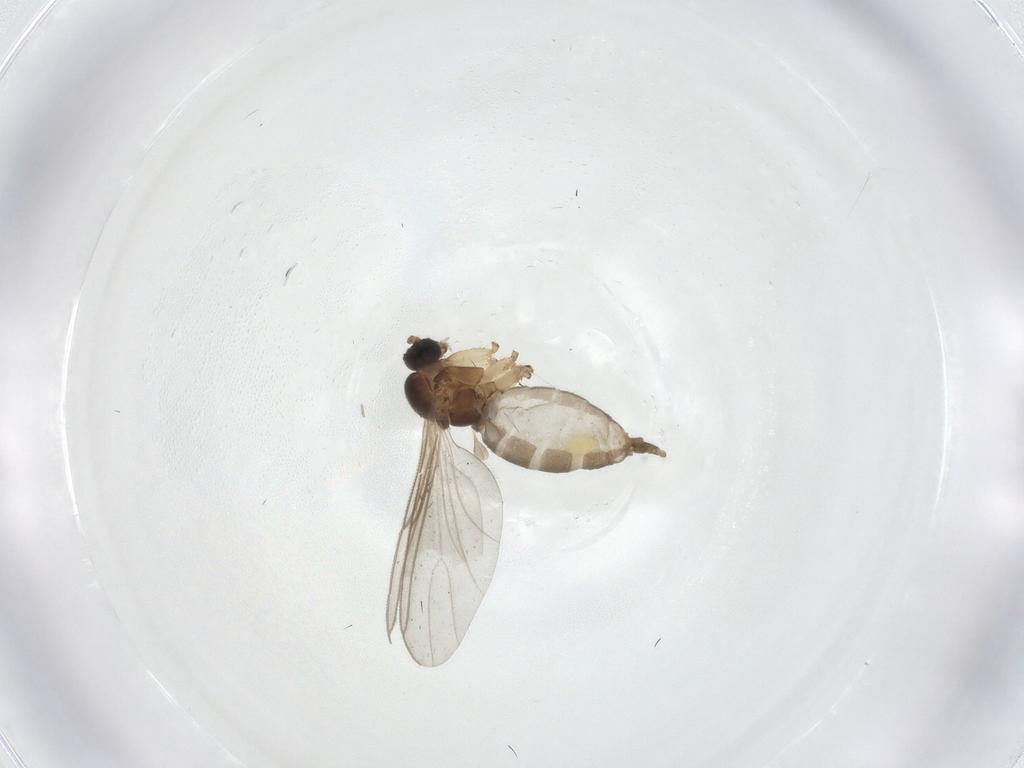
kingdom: Animalia
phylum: Arthropoda
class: Insecta
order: Diptera
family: Sciaridae
